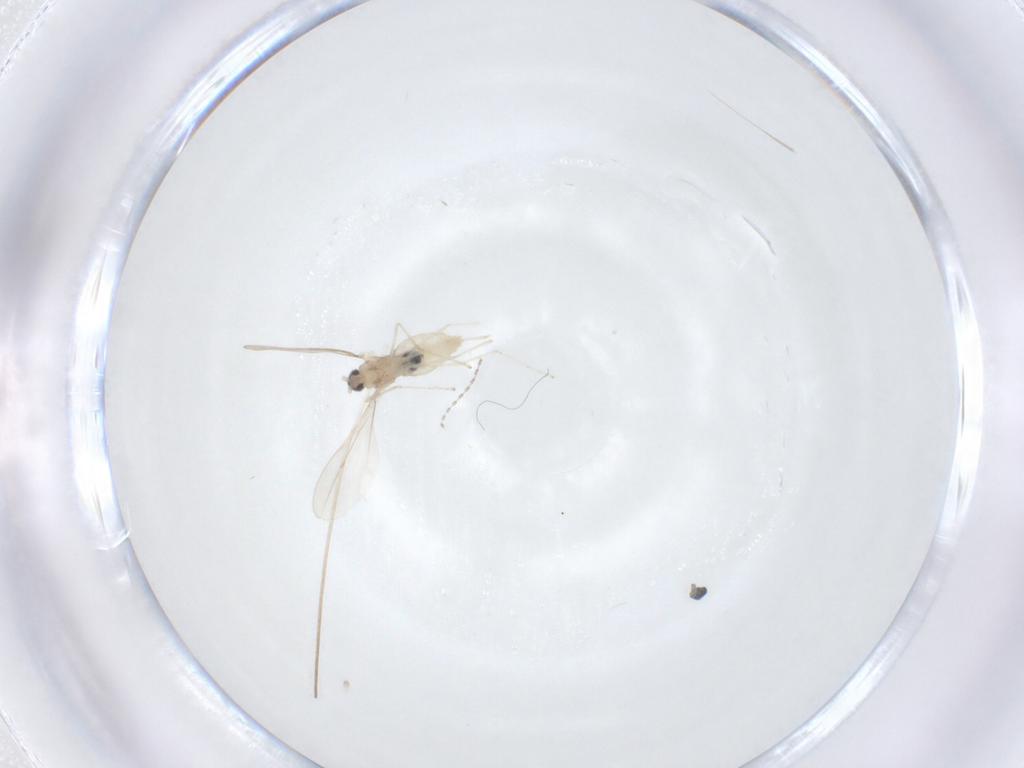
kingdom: Animalia
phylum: Arthropoda
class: Insecta
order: Diptera
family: Cecidomyiidae
